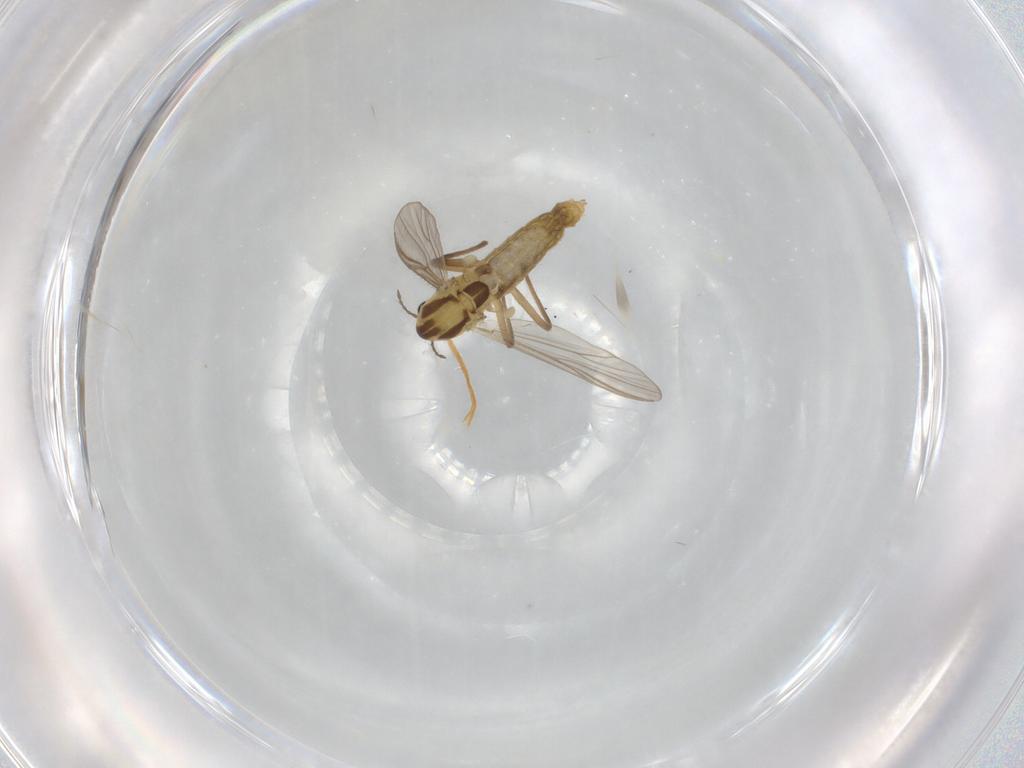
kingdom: Animalia
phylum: Arthropoda
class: Insecta
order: Diptera
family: Chironomidae
